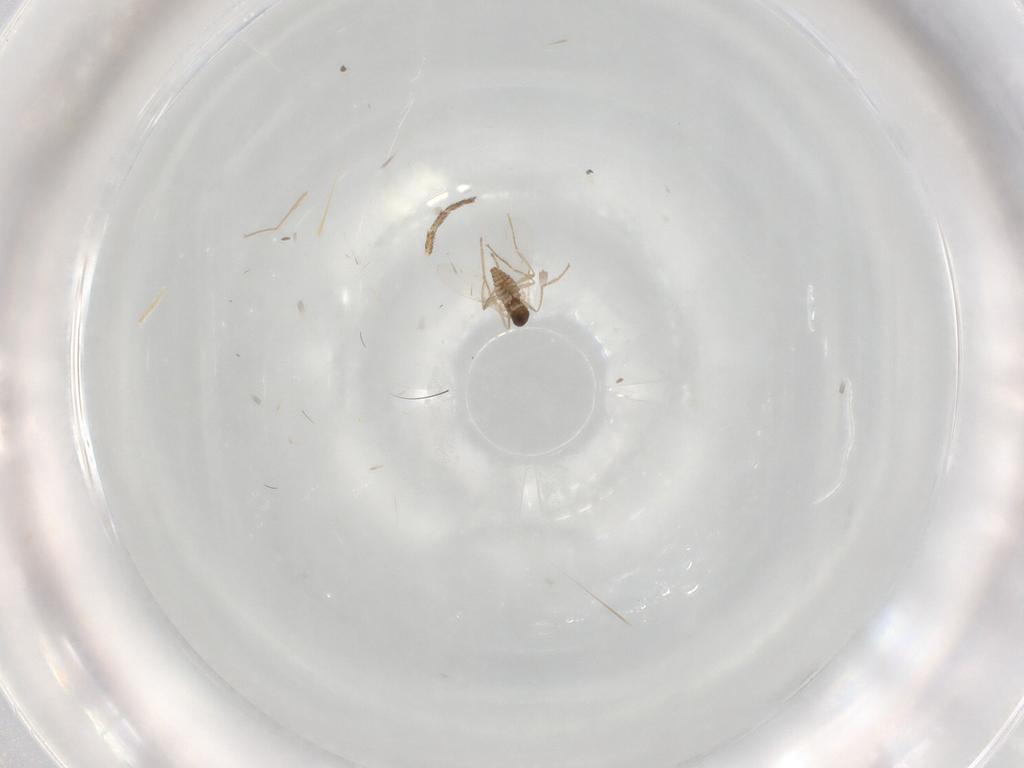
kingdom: Animalia
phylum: Arthropoda
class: Insecta
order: Diptera
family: Cecidomyiidae
